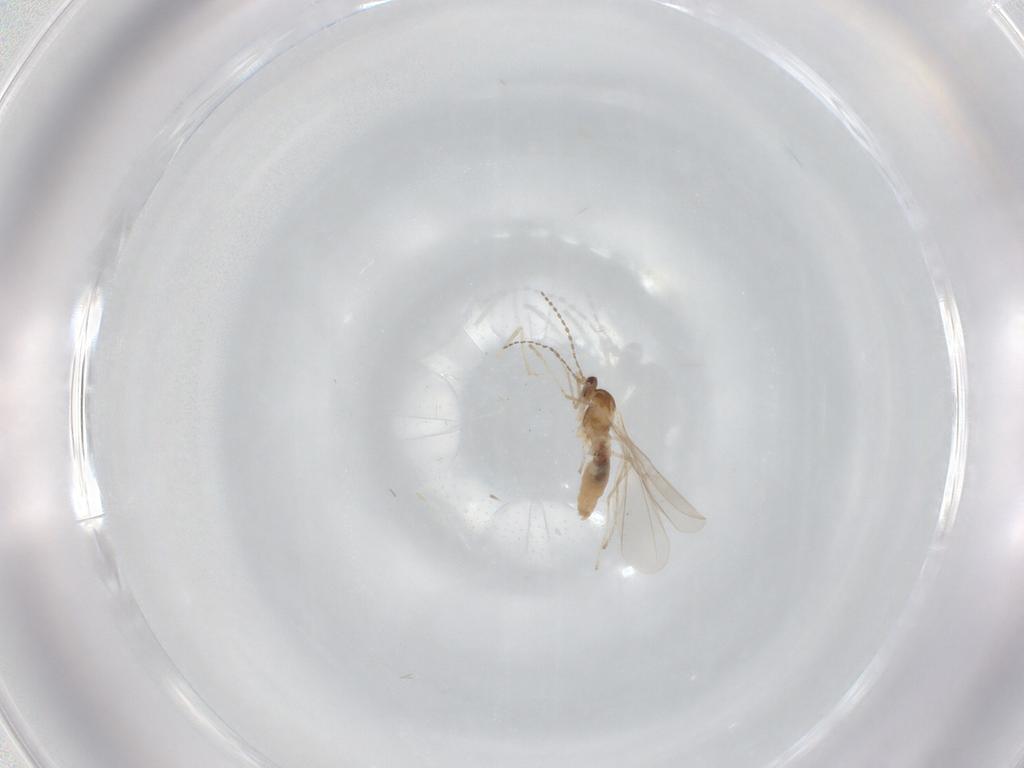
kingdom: Animalia
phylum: Arthropoda
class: Insecta
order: Diptera
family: Cecidomyiidae
